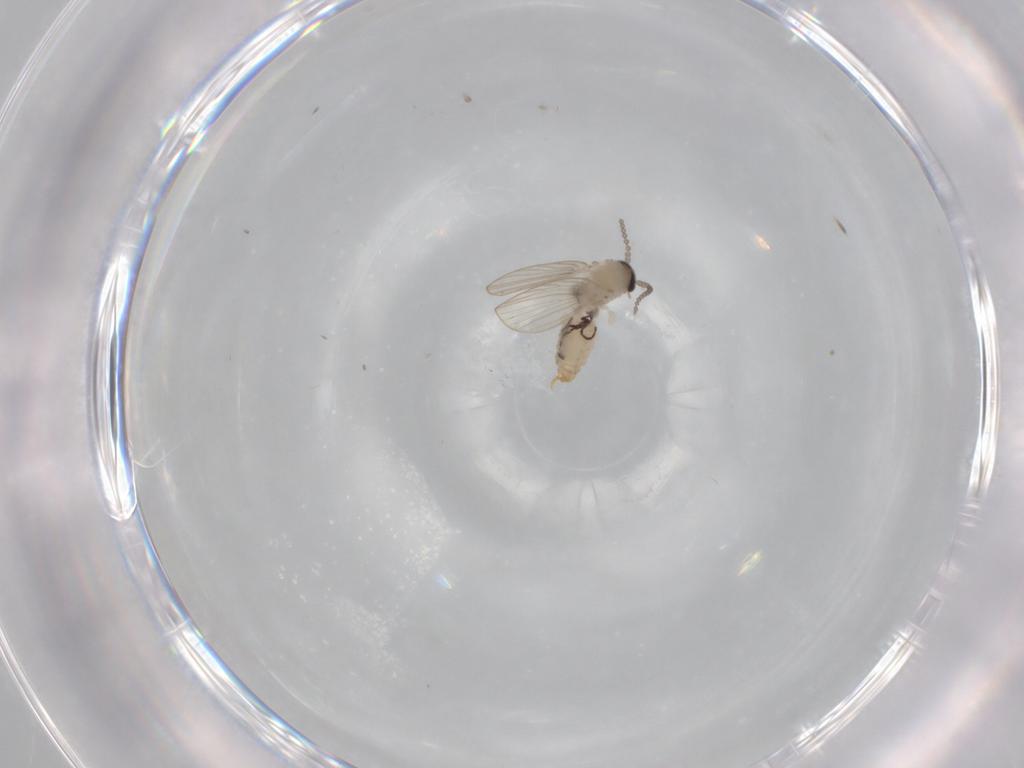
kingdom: Animalia
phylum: Arthropoda
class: Insecta
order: Diptera
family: Psychodidae
